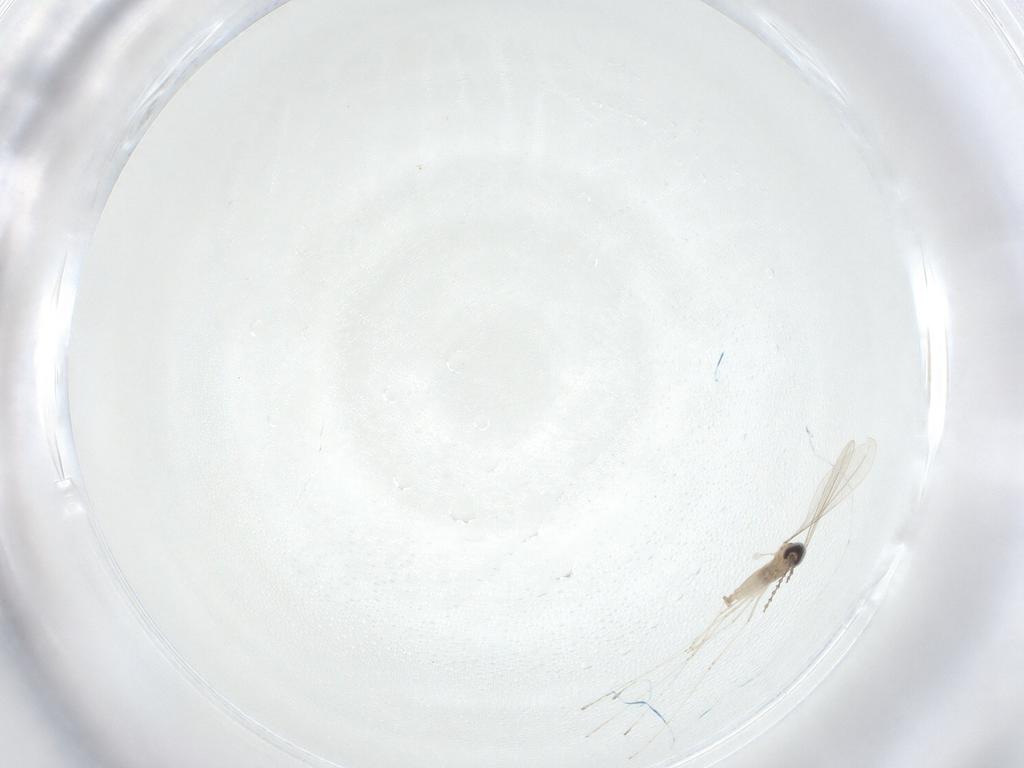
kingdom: Animalia
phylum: Arthropoda
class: Insecta
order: Diptera
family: Cecidomyiidae
